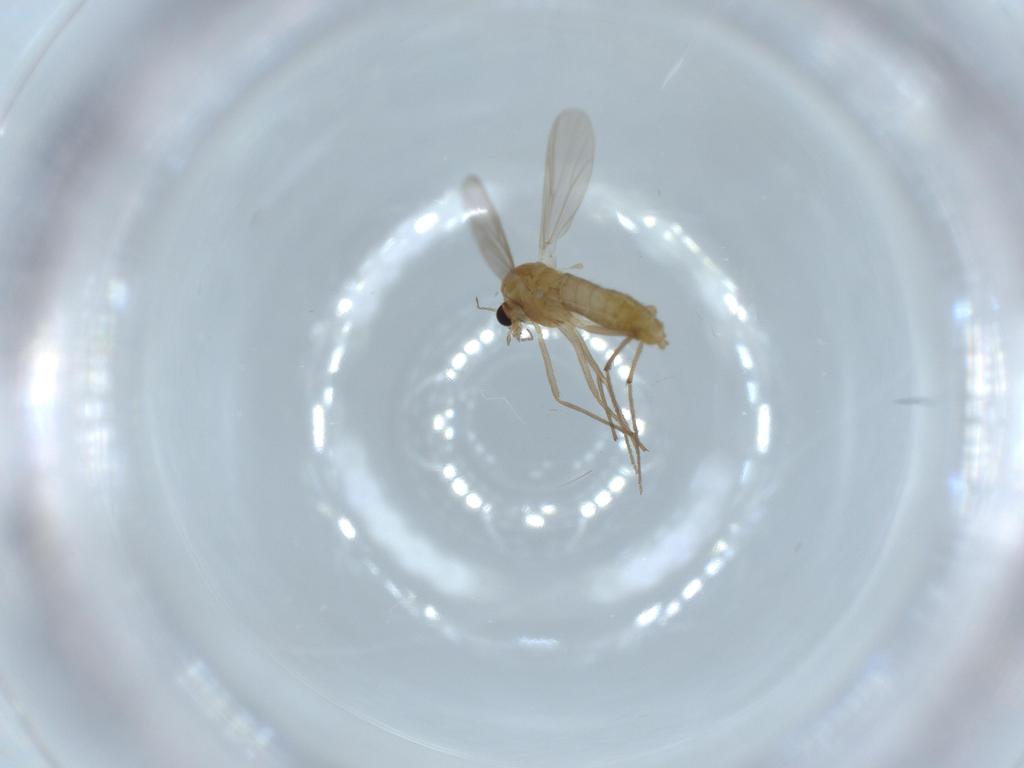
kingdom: Animalia
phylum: Arthropoda
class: Insecta
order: Diptera
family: Chironomidae
